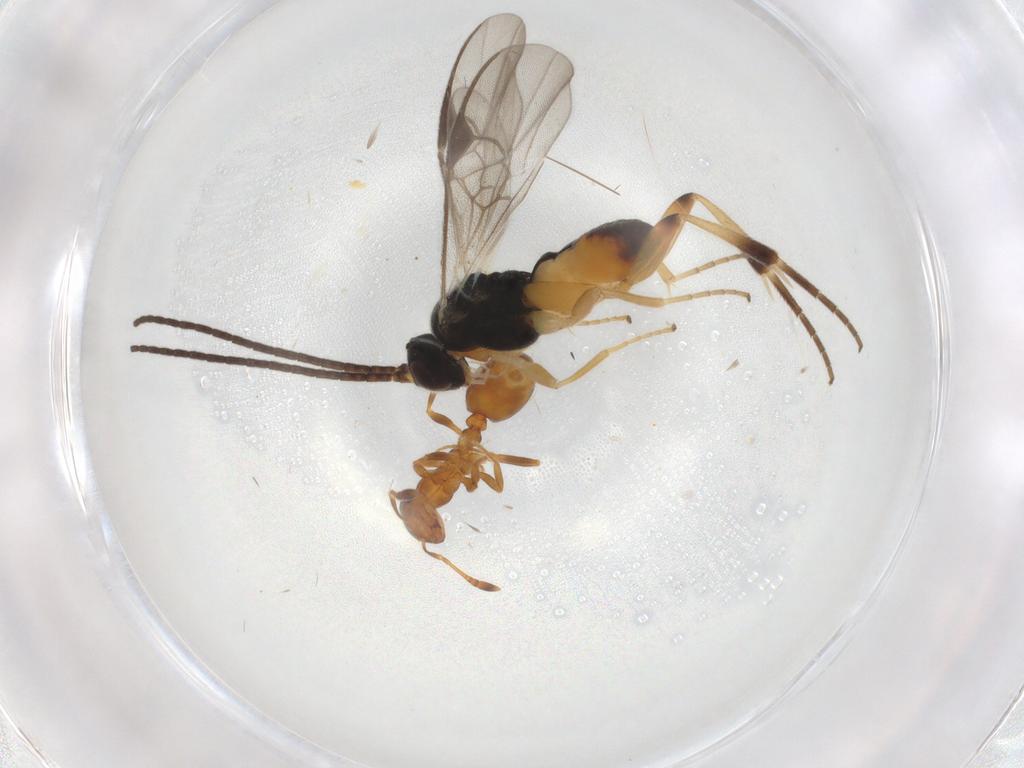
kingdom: Animalia
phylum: Arthropoda
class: Insecta
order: Hymenoptera
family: Braconidae
